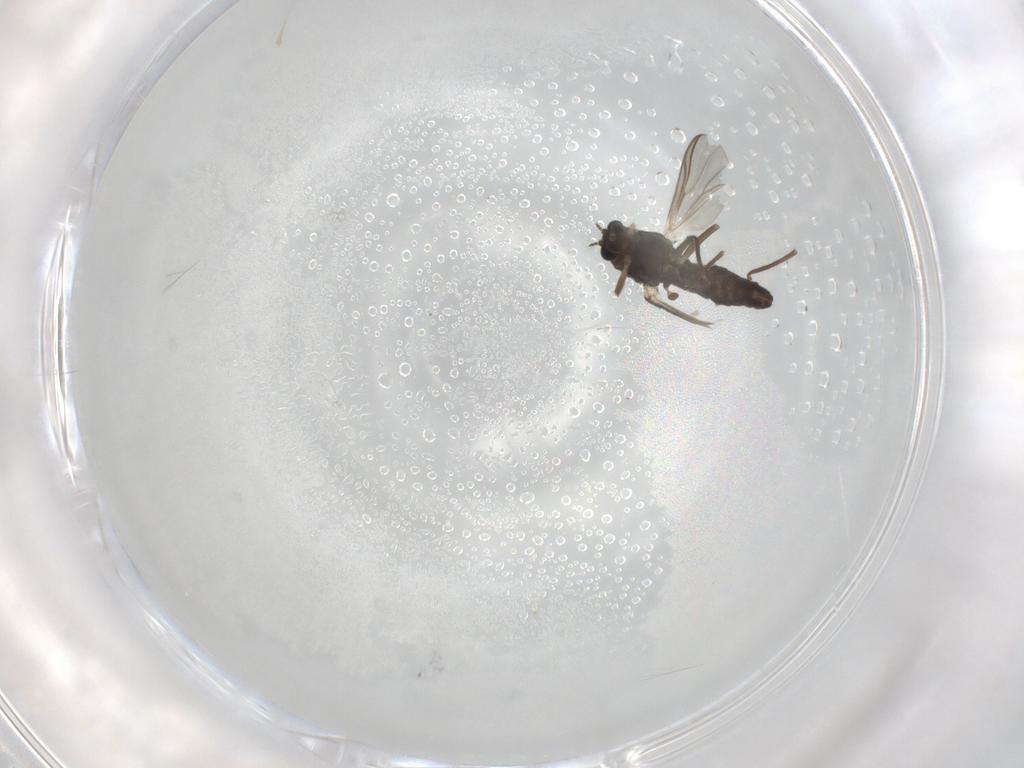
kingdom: Animalia
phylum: Arthropoda
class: Insecta
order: Diptera
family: Chironomidae
